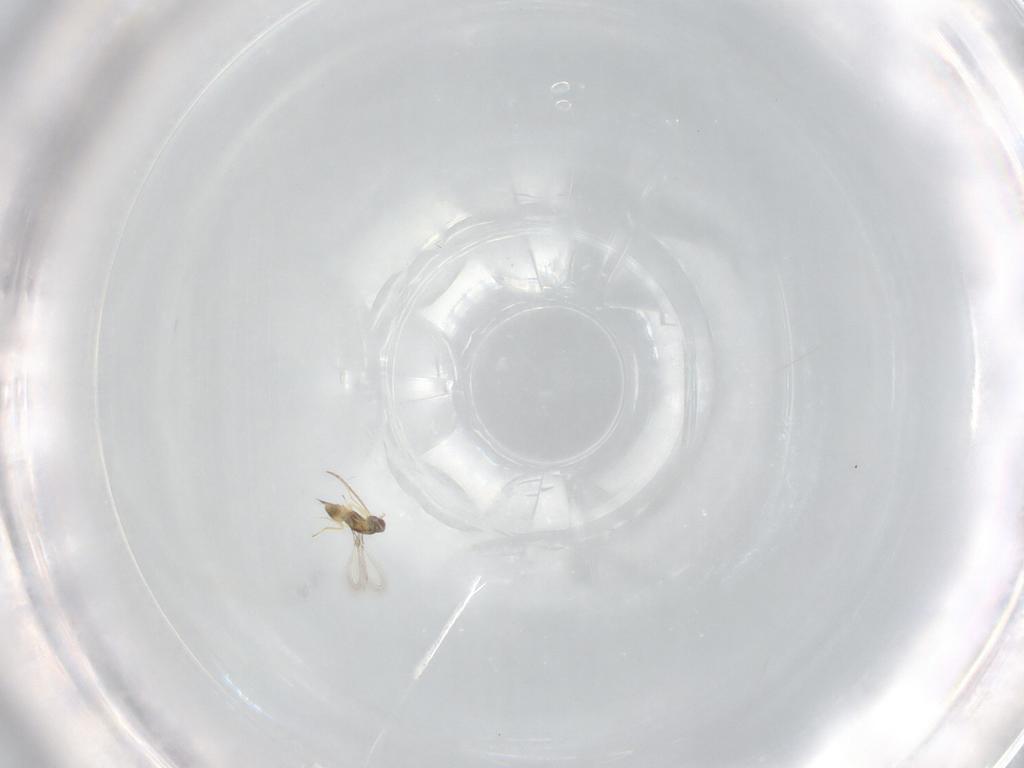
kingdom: Animalia
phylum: Arthropoda
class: Insecta
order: Hymenoptera
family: Mymaridae
